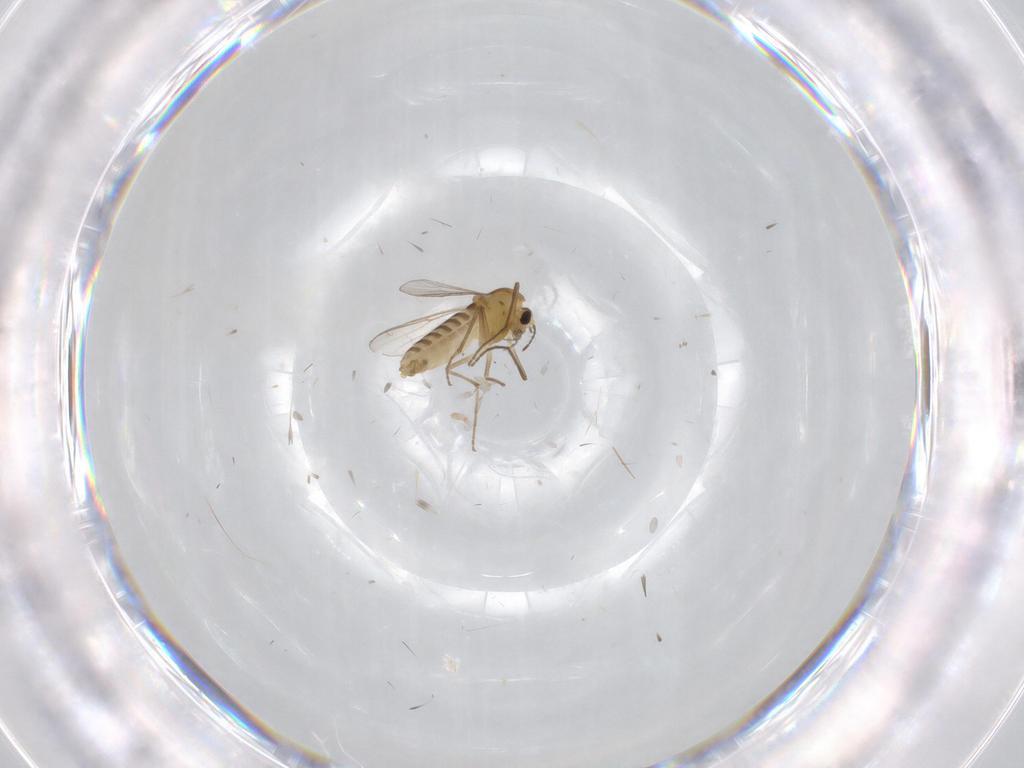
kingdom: Animalia
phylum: Arthropoda
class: Insecta
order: Diptera
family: Chironomidae
